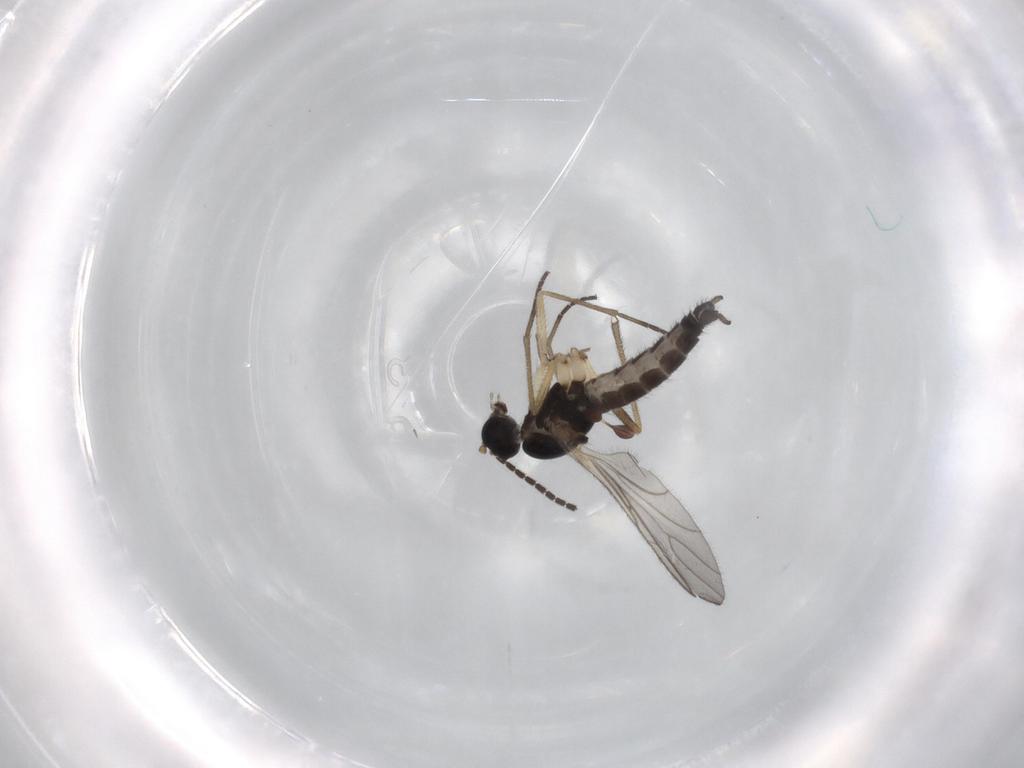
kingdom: Animalia
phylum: Arthropoda
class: Insecta
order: Diptera
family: Sciaridae
